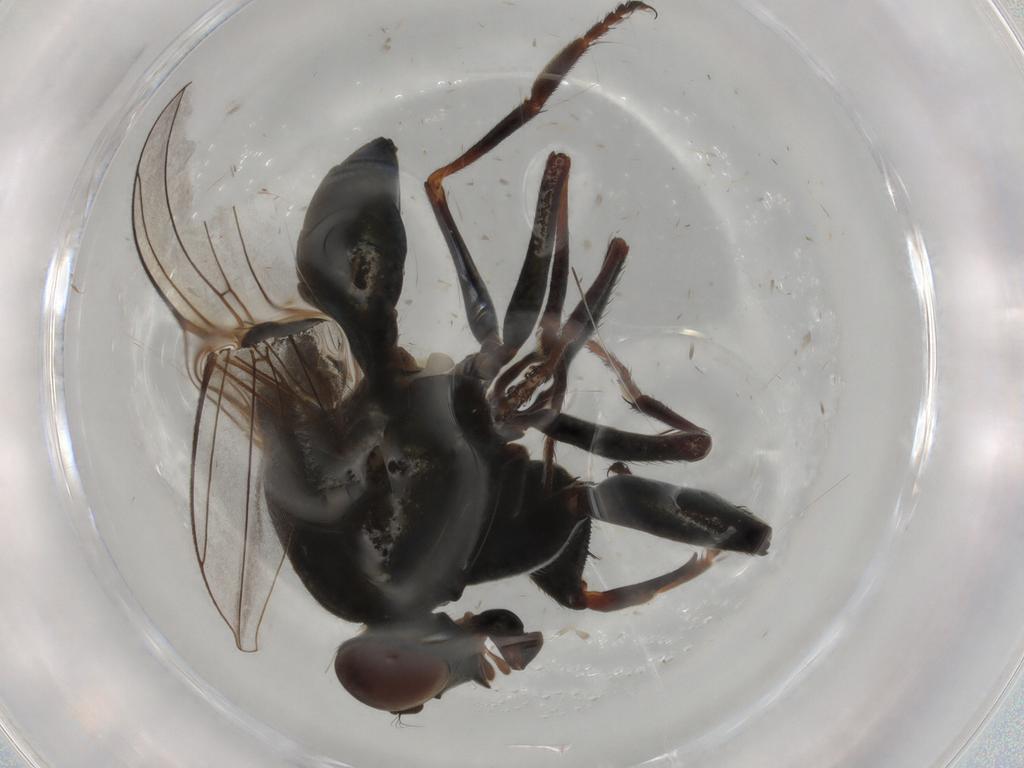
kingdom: Animalia
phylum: Arthropoda
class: Insecta
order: Diptera
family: Ephydridae
